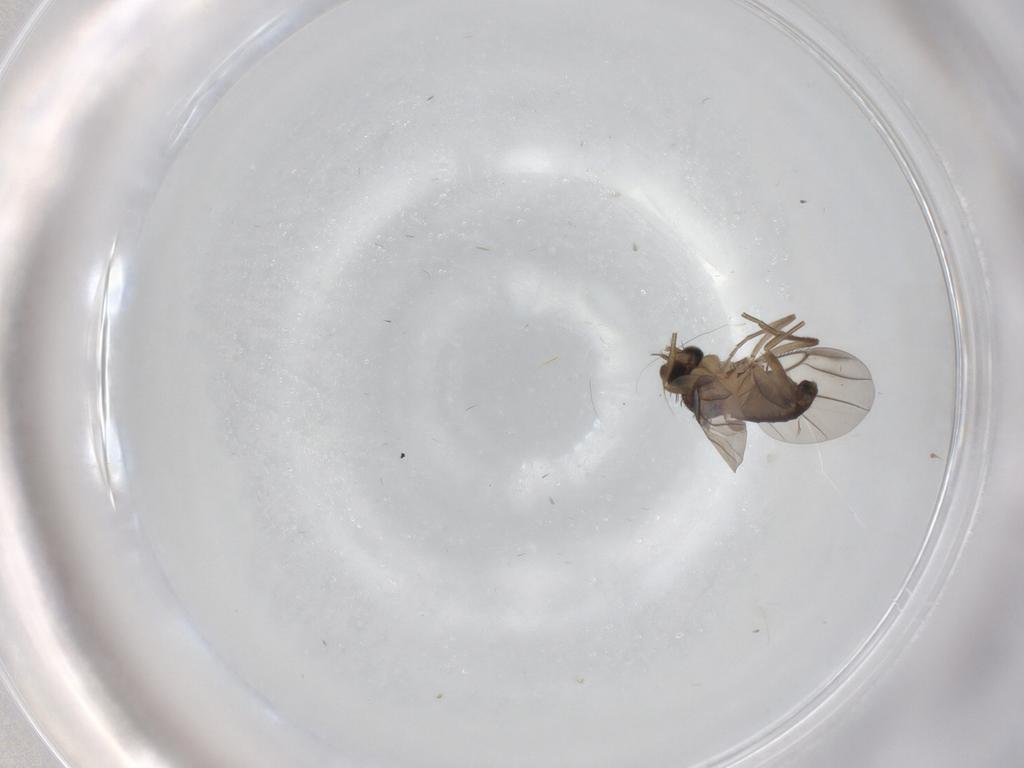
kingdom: Animalia
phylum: Arthropoda
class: Insecta
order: Diptera
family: Phoridae
